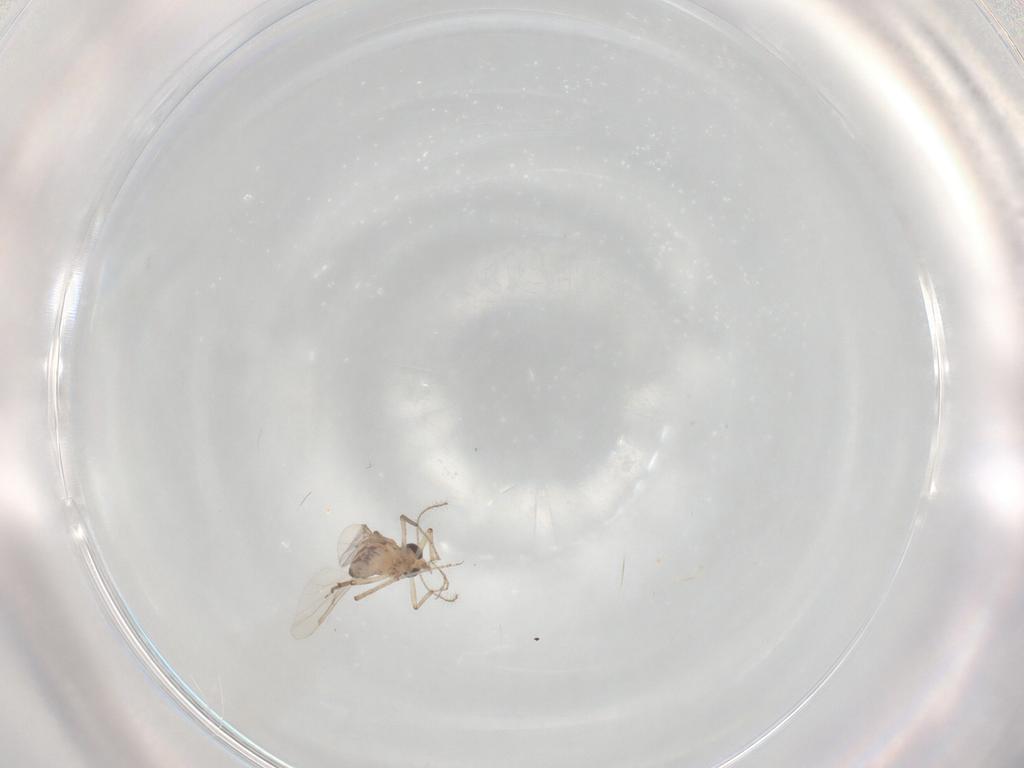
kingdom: Animalia
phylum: Arthropoda
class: Insecta
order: Diptera
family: Ceratopogonidae
